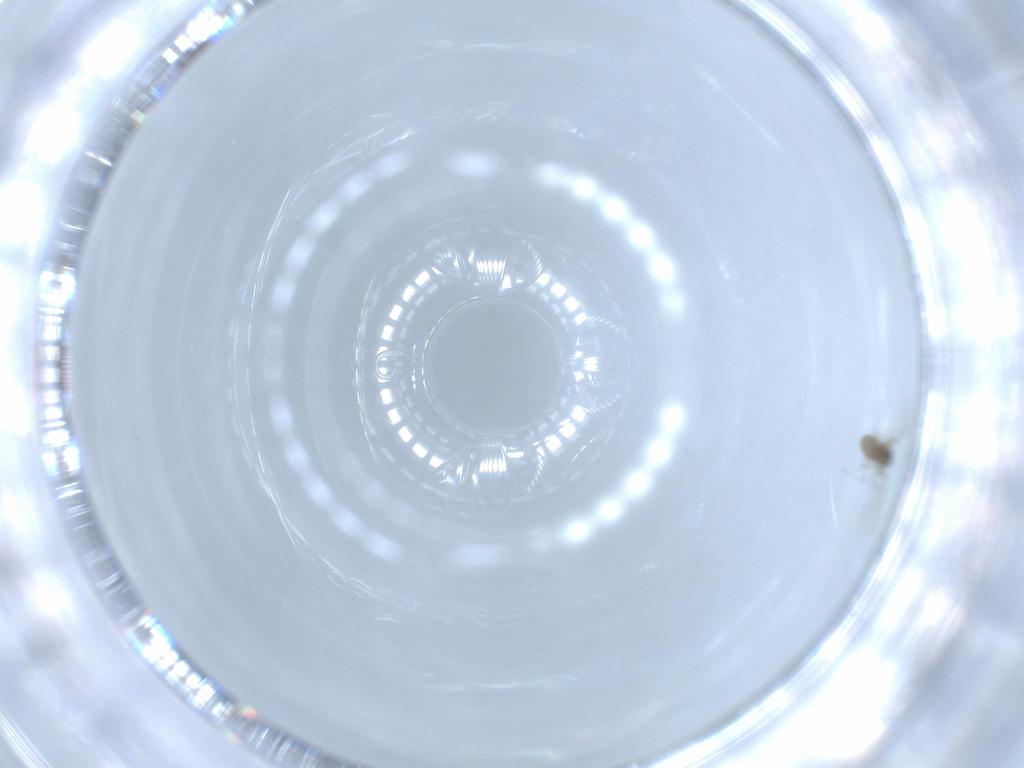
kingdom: Animalia
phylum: Arthropoda
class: Insecta
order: Diptera
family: Cecidomyiidae
